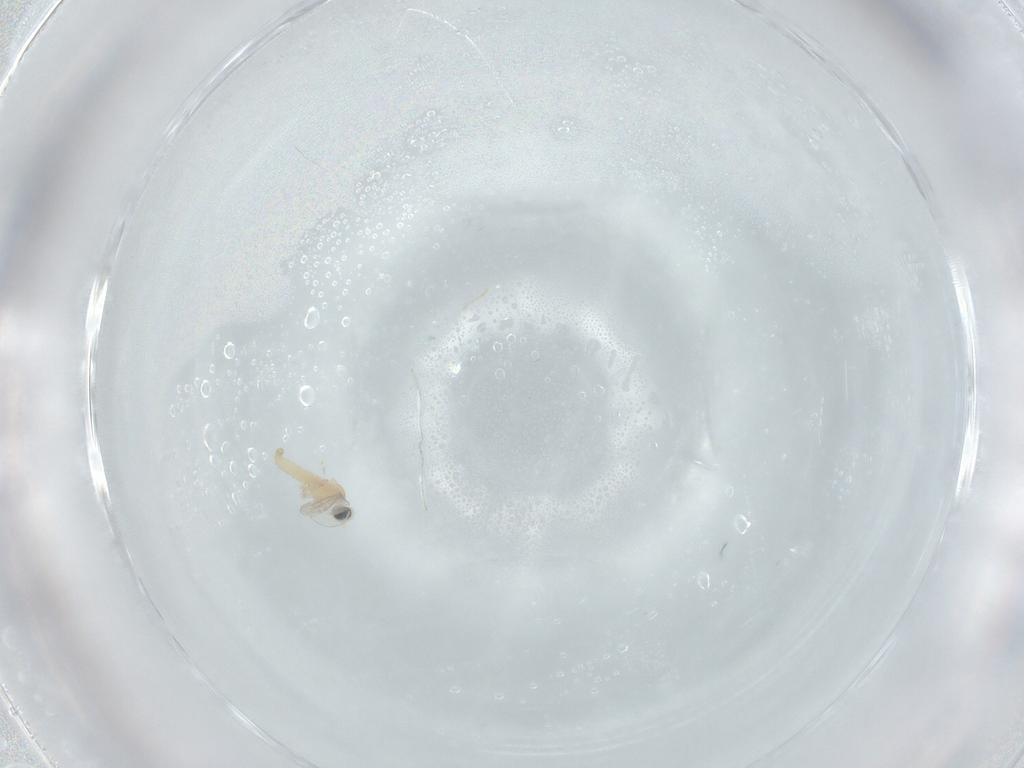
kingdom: Animalia
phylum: Arthropoda
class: Insecta
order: Diptera
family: Cecidomyiidae
